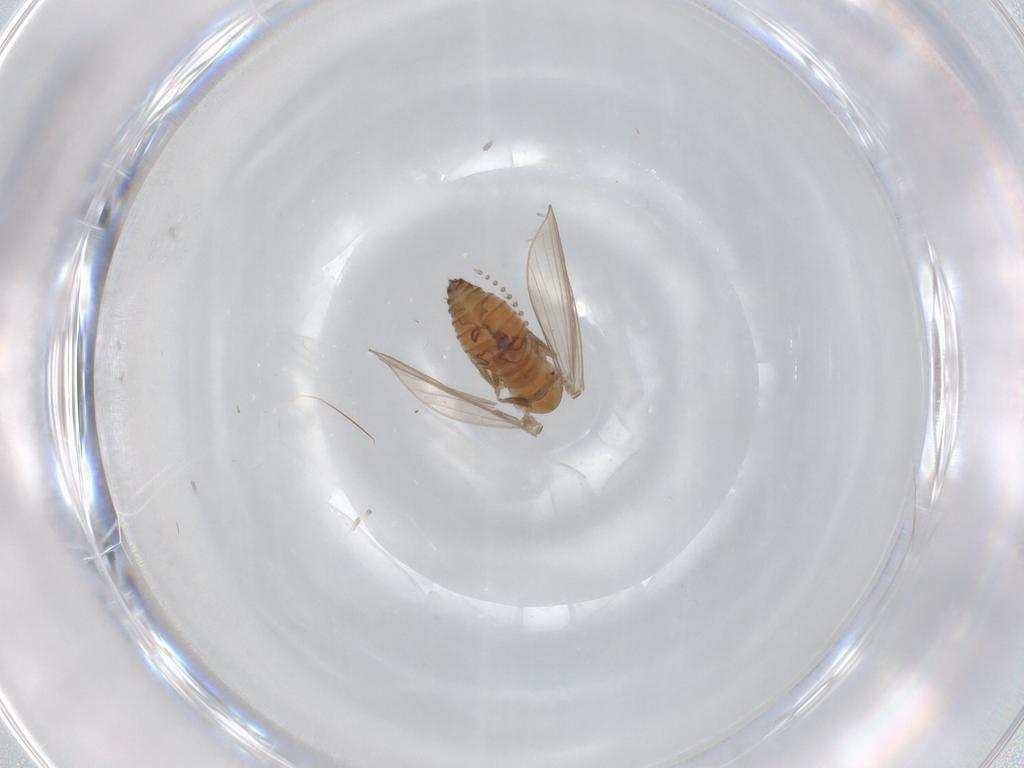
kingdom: Animalia
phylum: Arthropoda
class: Insecta
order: Diptera
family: Psychodidae
